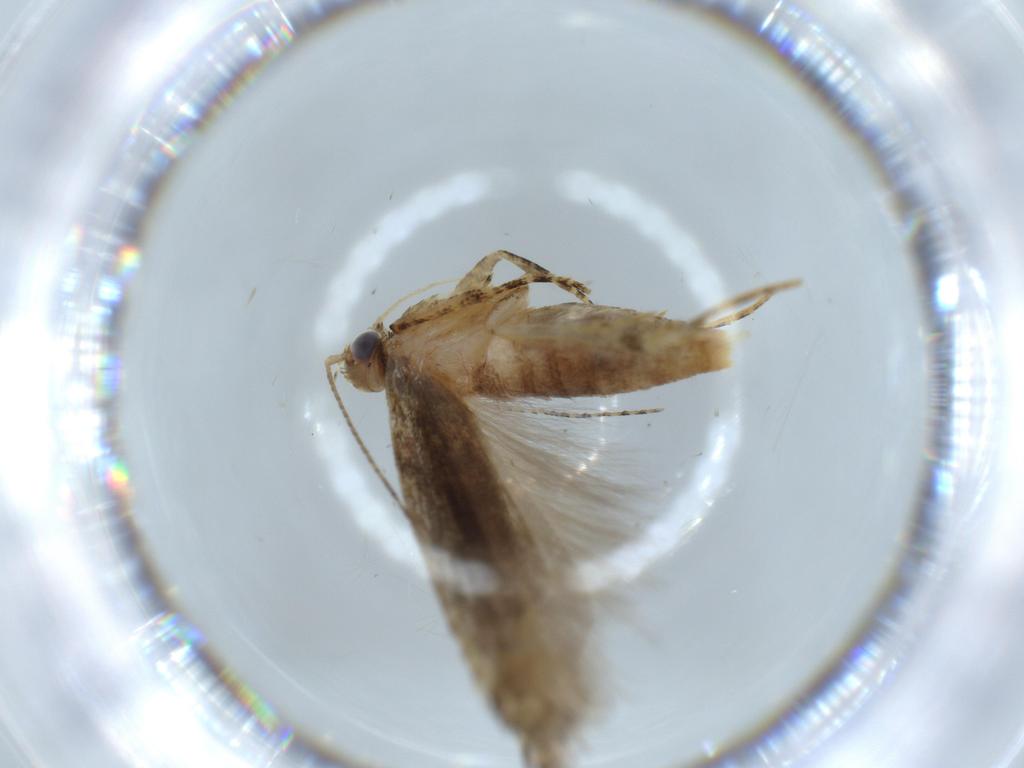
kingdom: Animalia
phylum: Arthropoda
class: Insecta
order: Lepidoptera
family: Gelechiidae
